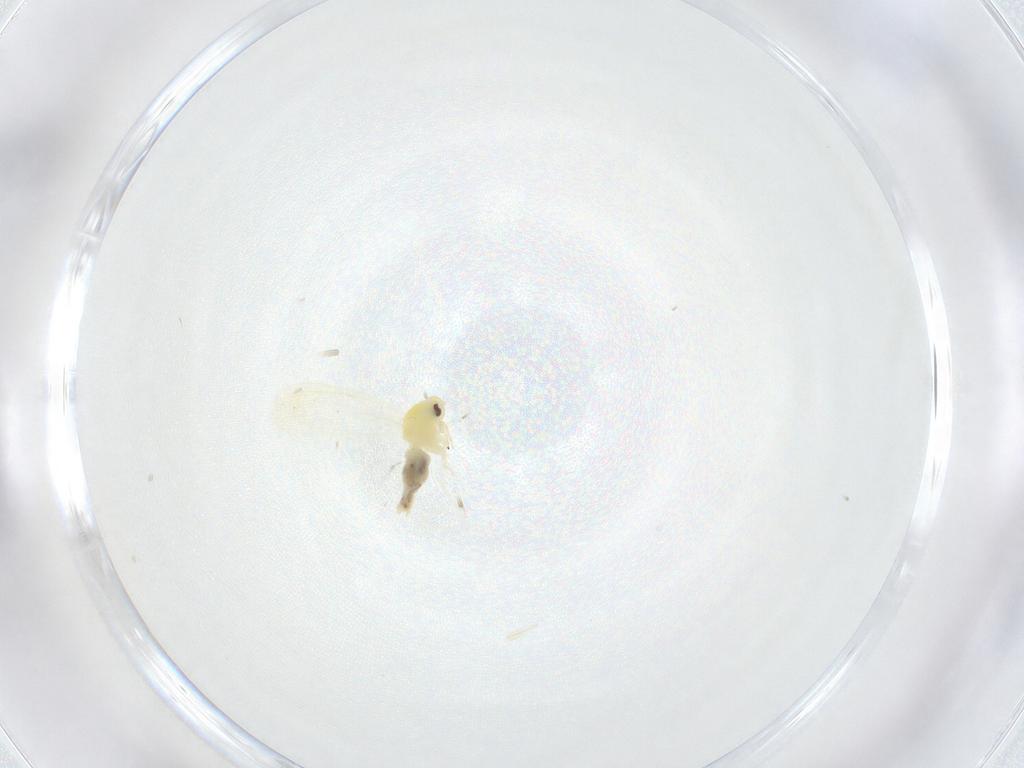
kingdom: Animalia
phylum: Arthropoda
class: Insecta
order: Hemiptera
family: Aleyrodidae
